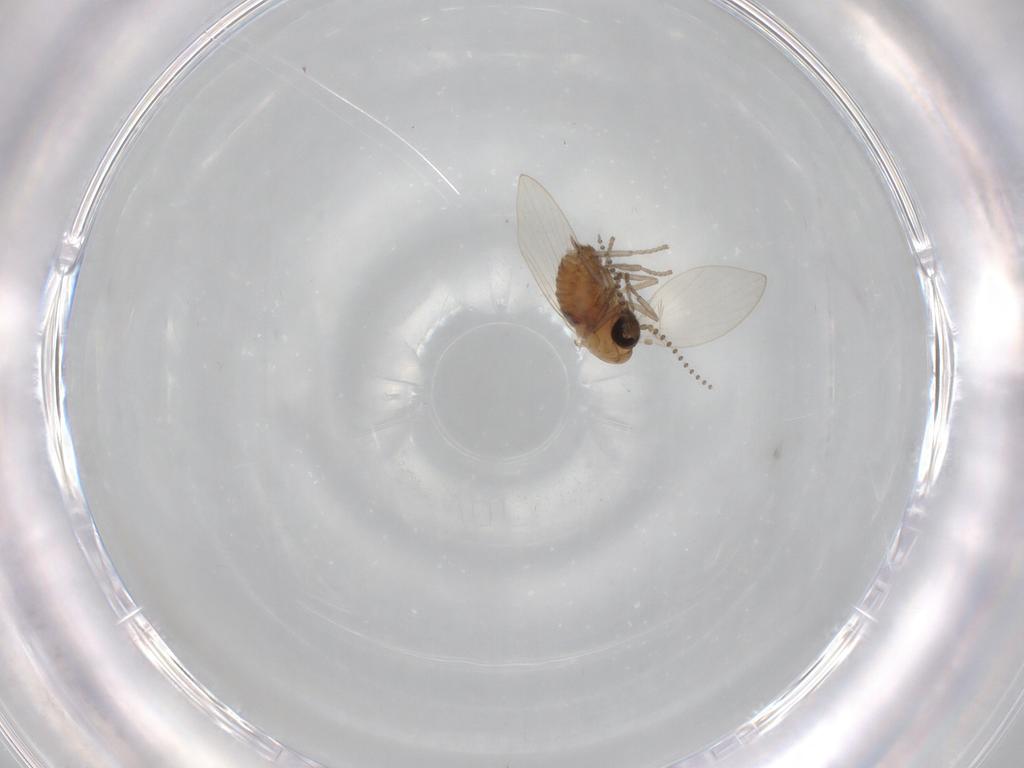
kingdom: Animalia
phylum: Arthropoda
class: Insecta
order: Diptera
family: Psychodidae
